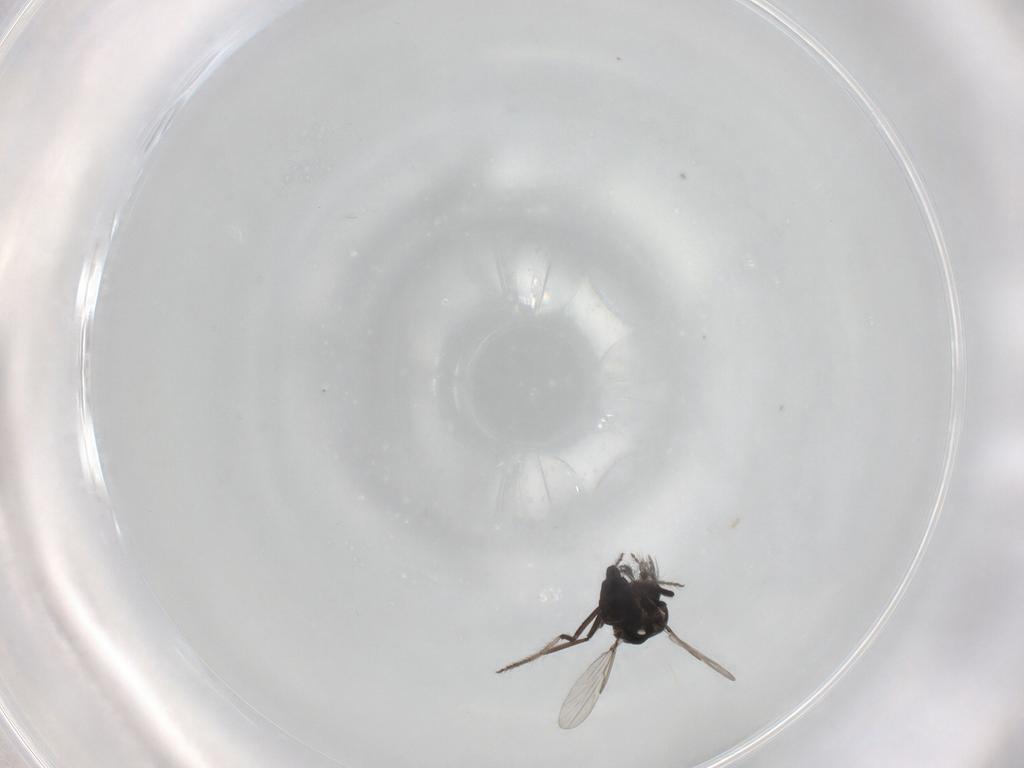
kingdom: Animalia
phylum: Arthropoda
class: Insecta
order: Diptera
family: Ceratopogonidae
